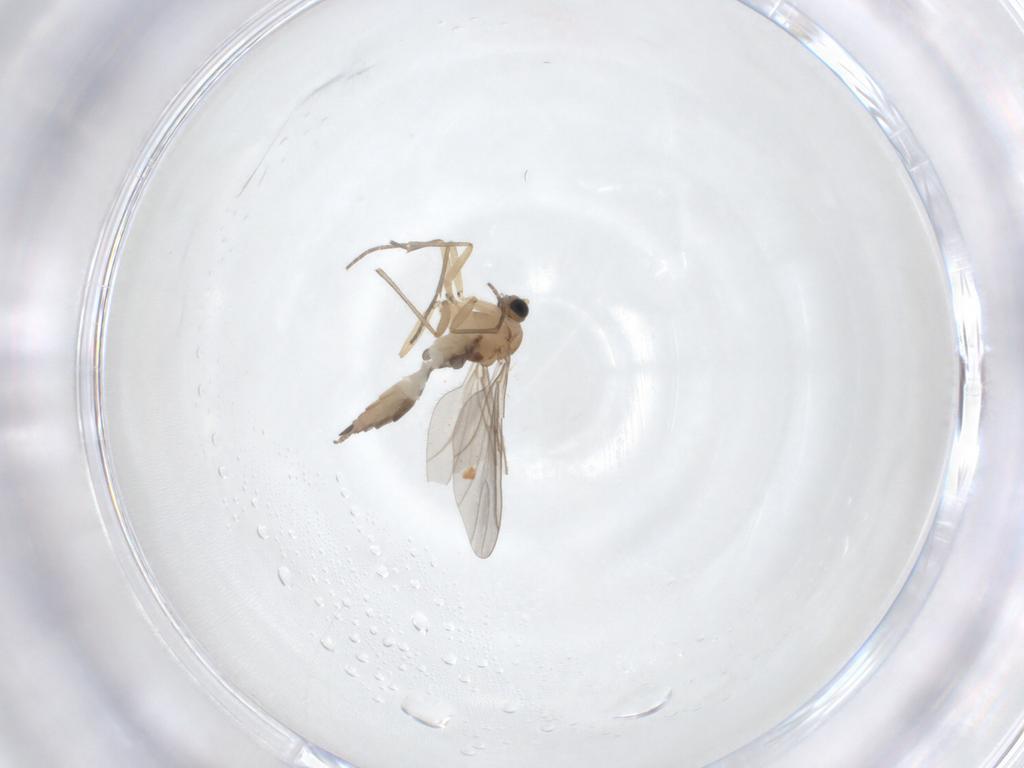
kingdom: Animalia
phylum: Arthropoda
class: Insecta
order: Diptera
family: Sciaridae
